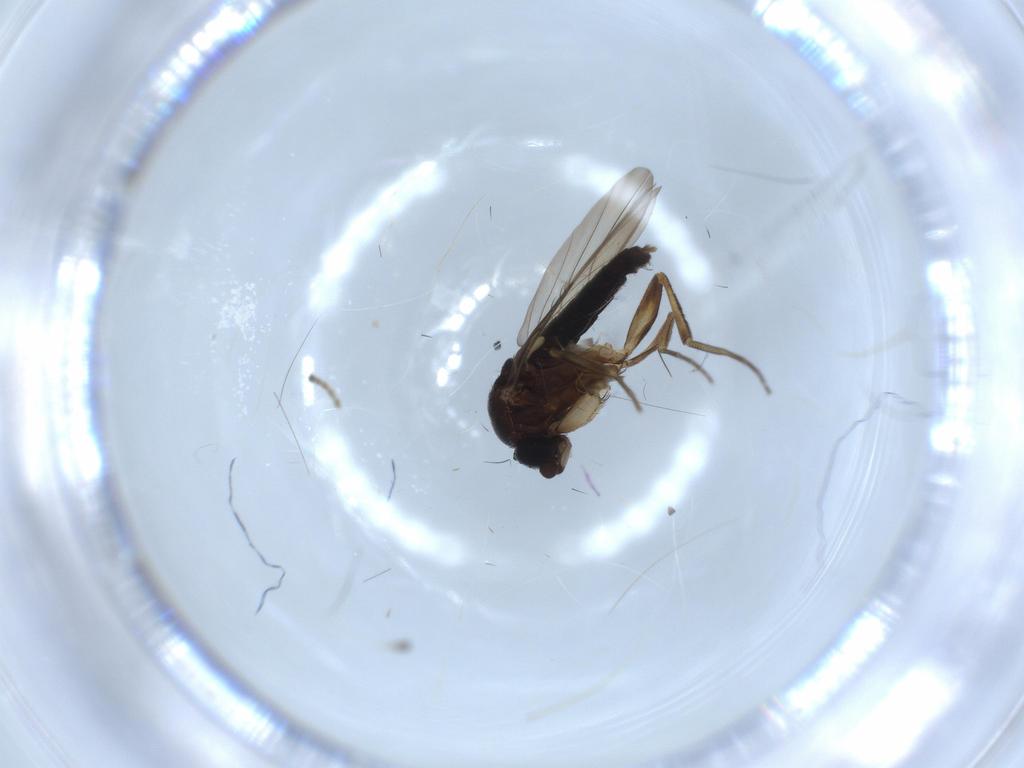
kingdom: Animalia
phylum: Arthropoda
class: Insecta
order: Diptera
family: Phoridae
